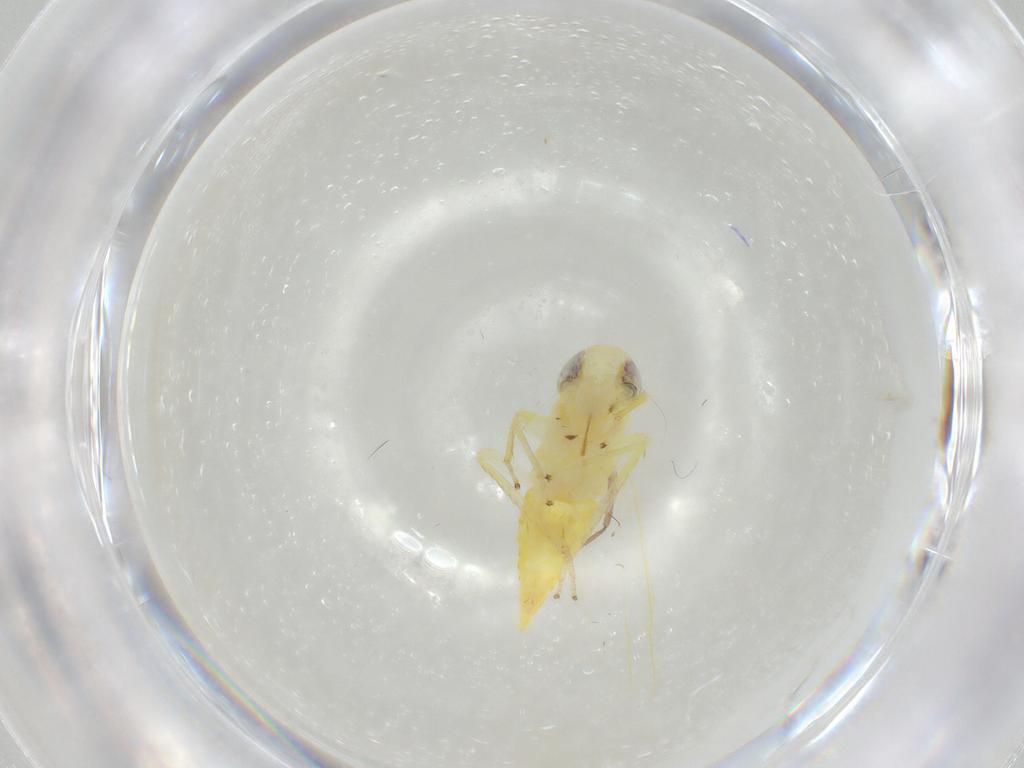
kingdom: Animalia
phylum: Arthropoda
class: Insecta
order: Hemiptera
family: Cicadellidae
